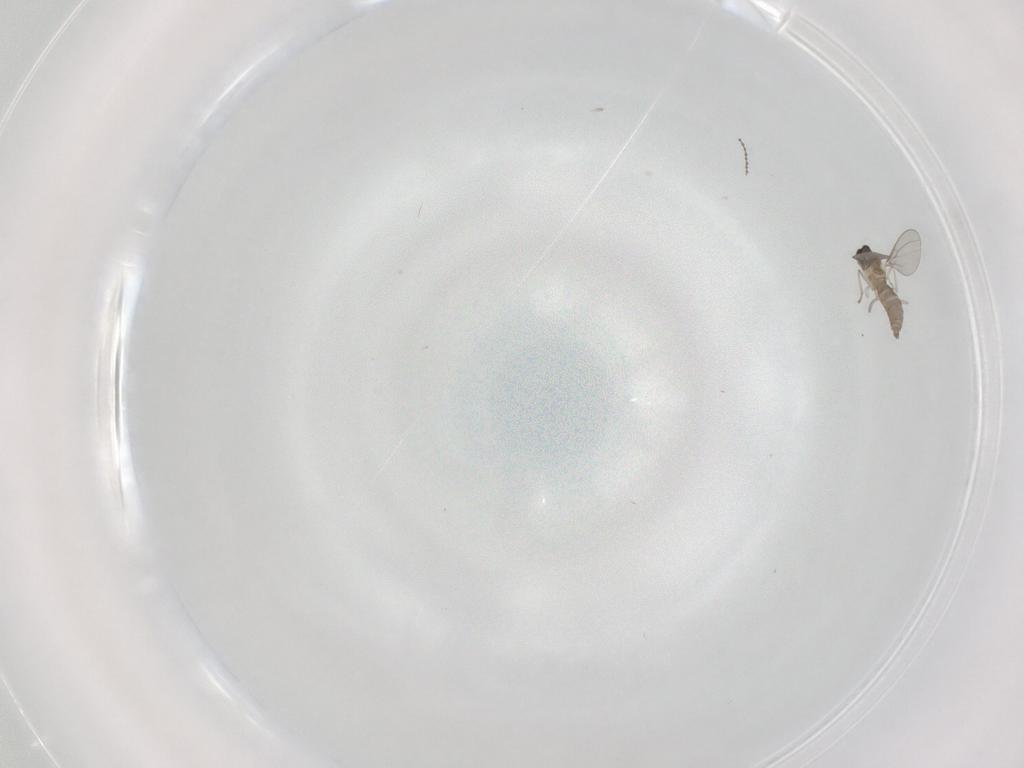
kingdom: Animalia
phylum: Arthropoda
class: Insecta
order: Diptera
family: Cecidomyiidae
